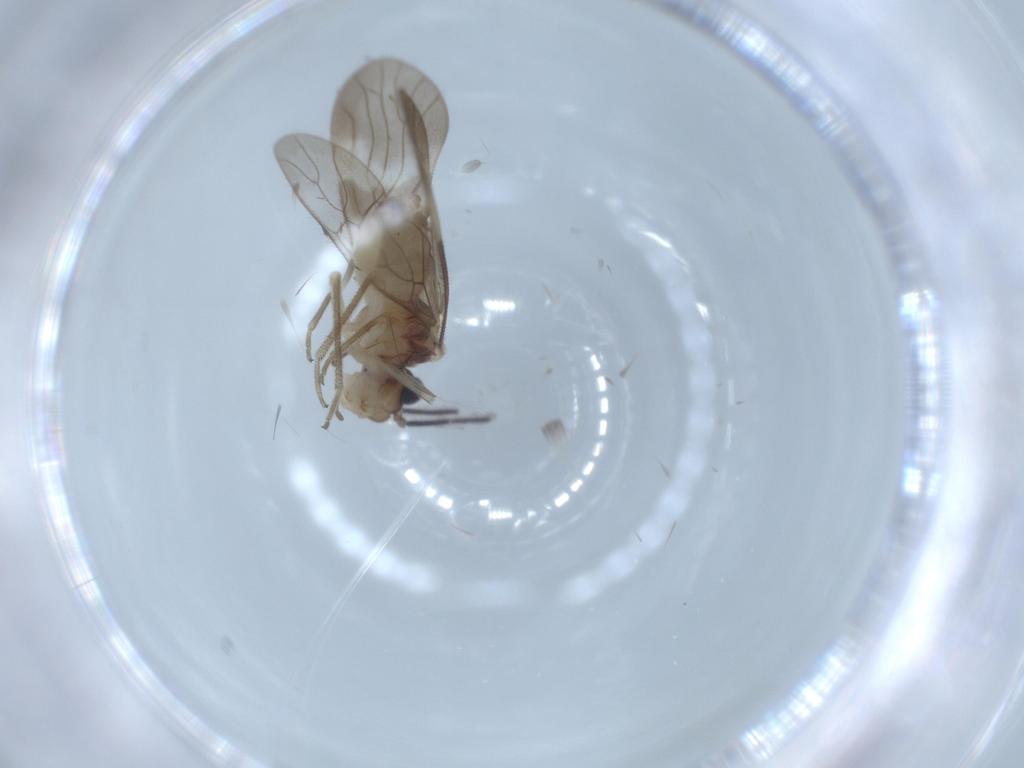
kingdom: Animalia
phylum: Arthropoda
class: Insecta
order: Psocodea
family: Amphipsocidae
